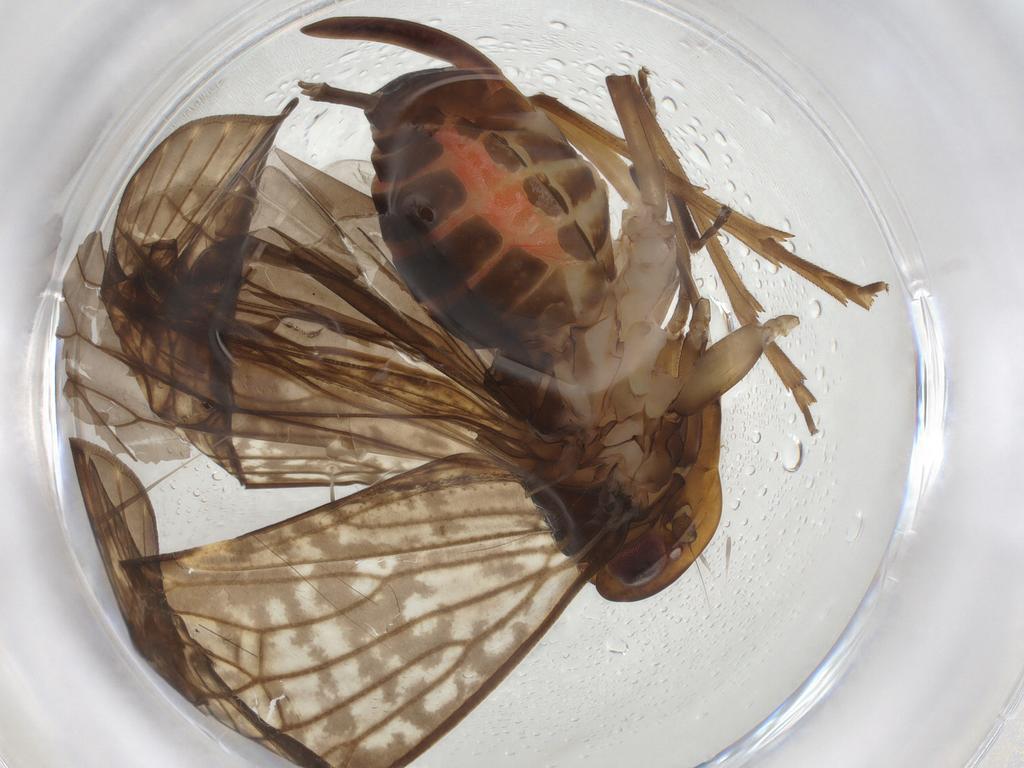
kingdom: Animalia
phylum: Arthropoda
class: Insecta
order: Hemiptera
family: Cixiidae
